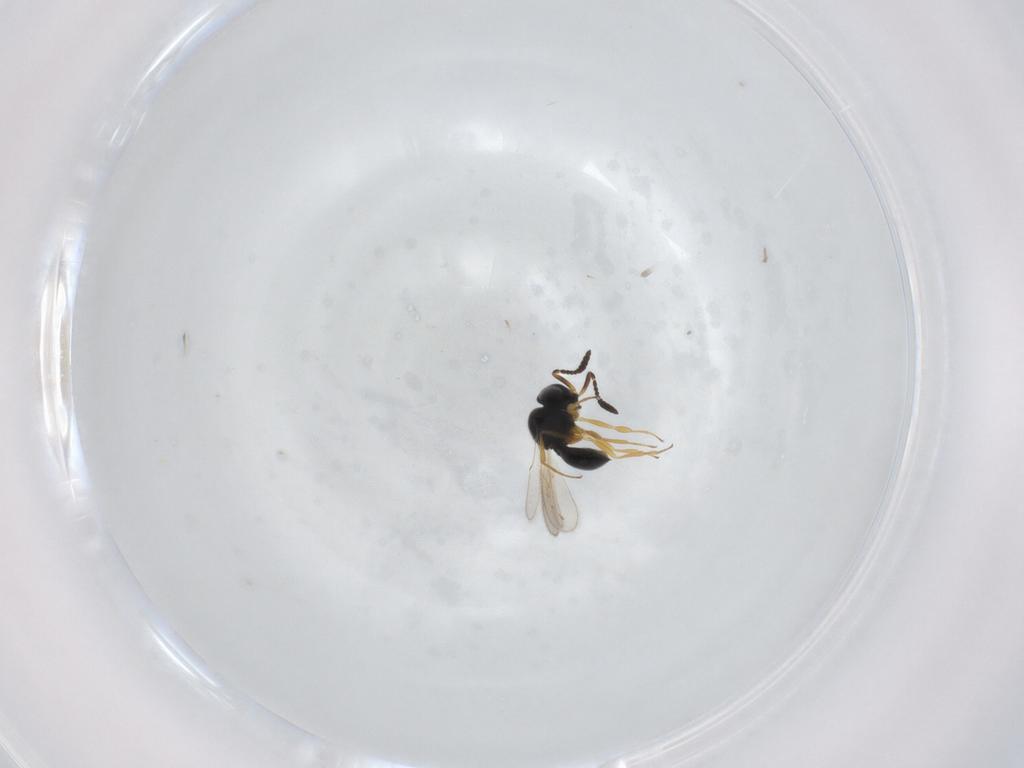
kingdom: Animalia
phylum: Arthropoda
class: Insecta
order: Hymenoptera
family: Scelionidae
